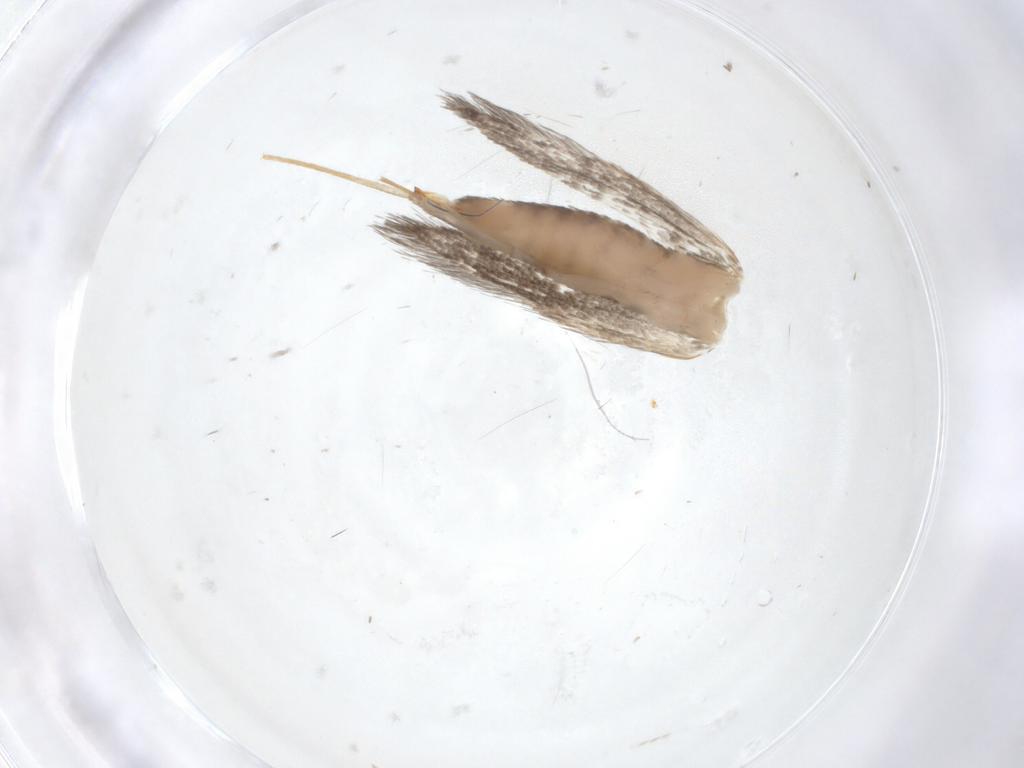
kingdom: Animalia
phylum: Arthropoda
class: Insecta
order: Lepidoptera
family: Tineidae
